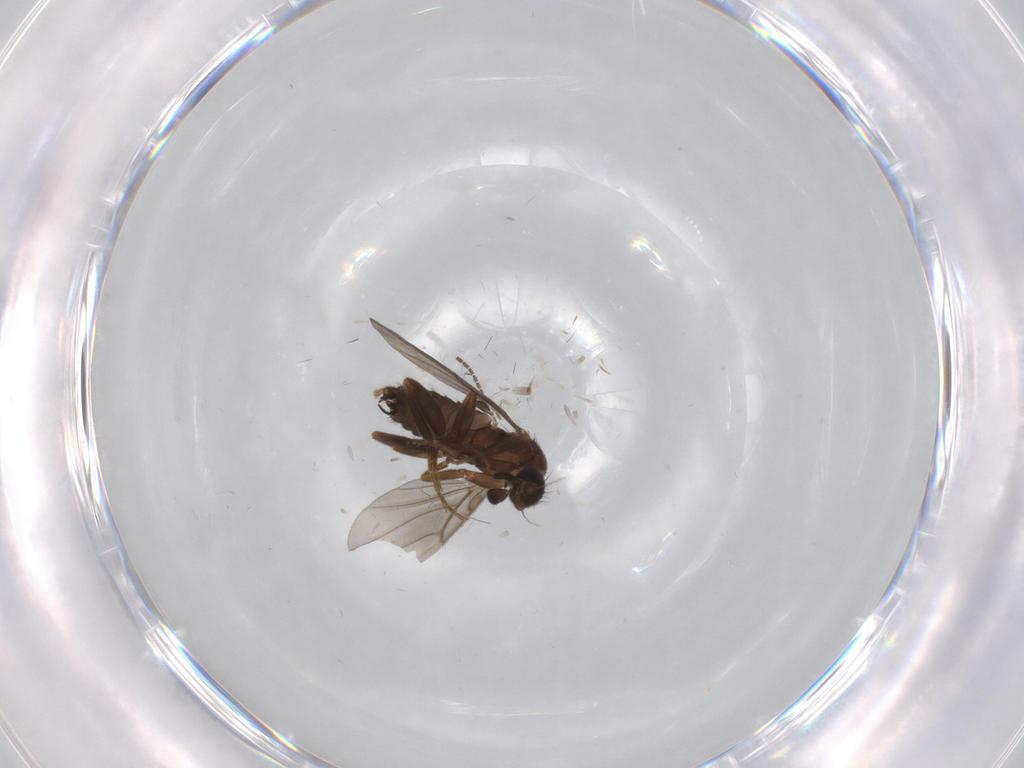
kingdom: Animalia
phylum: Arthropoda
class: Insecta
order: Diptera
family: Phoridae
